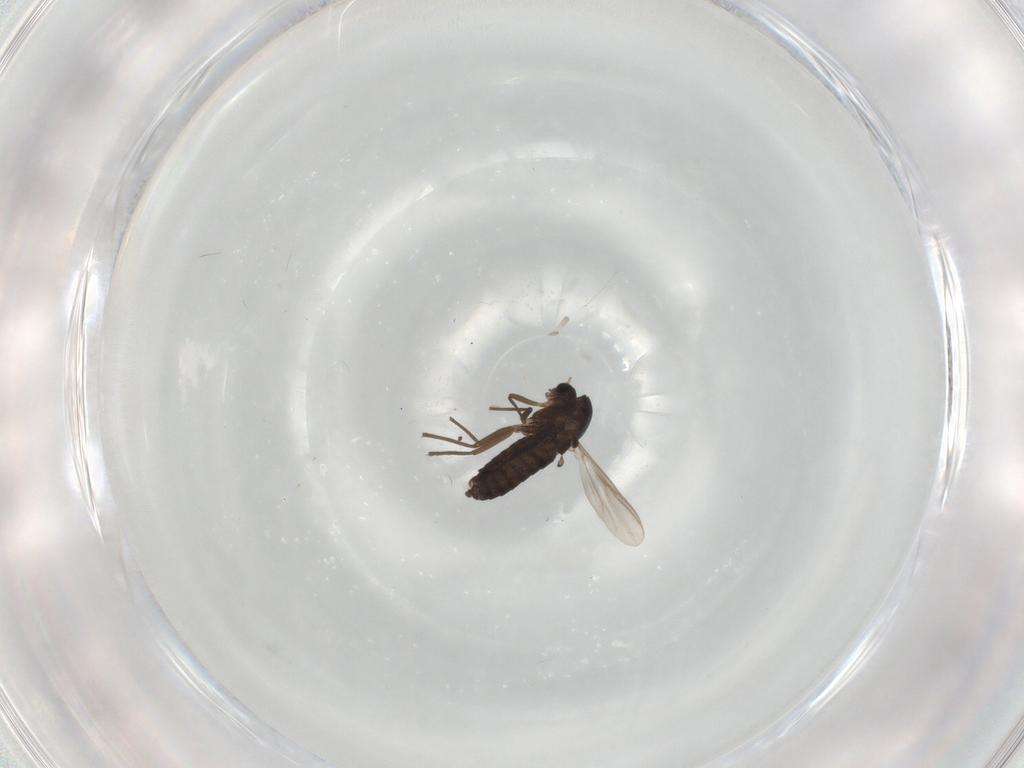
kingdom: Animalia
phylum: Arthropoda
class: Insecta
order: Diptera
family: Chironomidae
